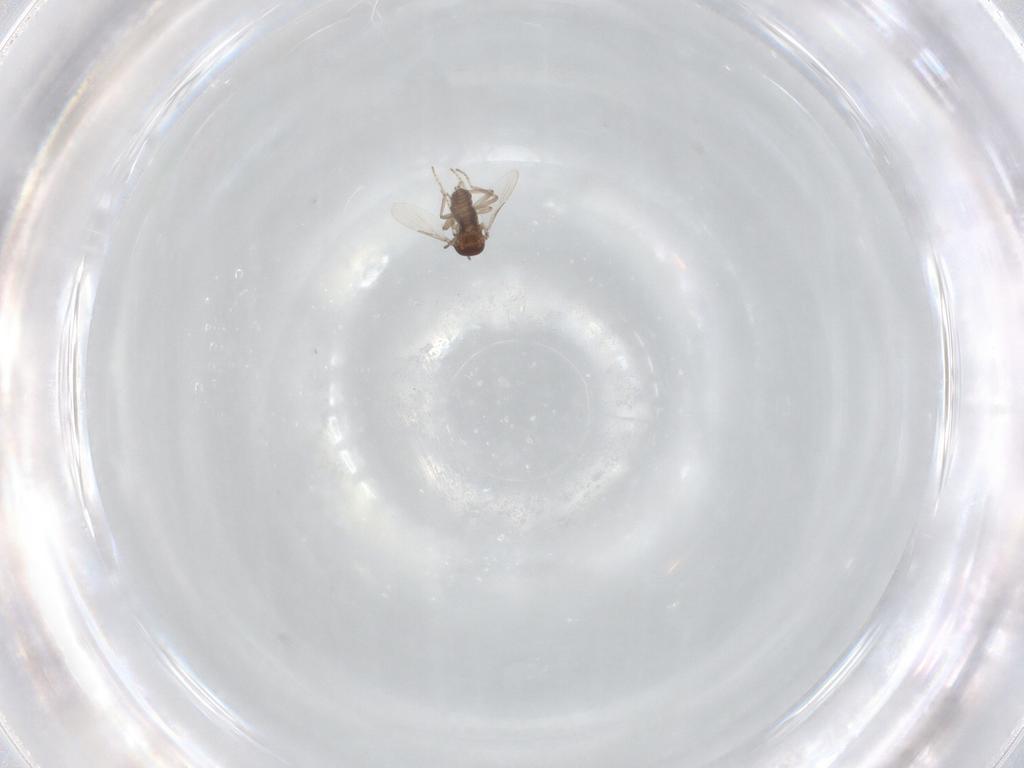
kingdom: Animalia
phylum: Arthropoda
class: Insecta
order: Diptera
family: Ceratopogonidae
